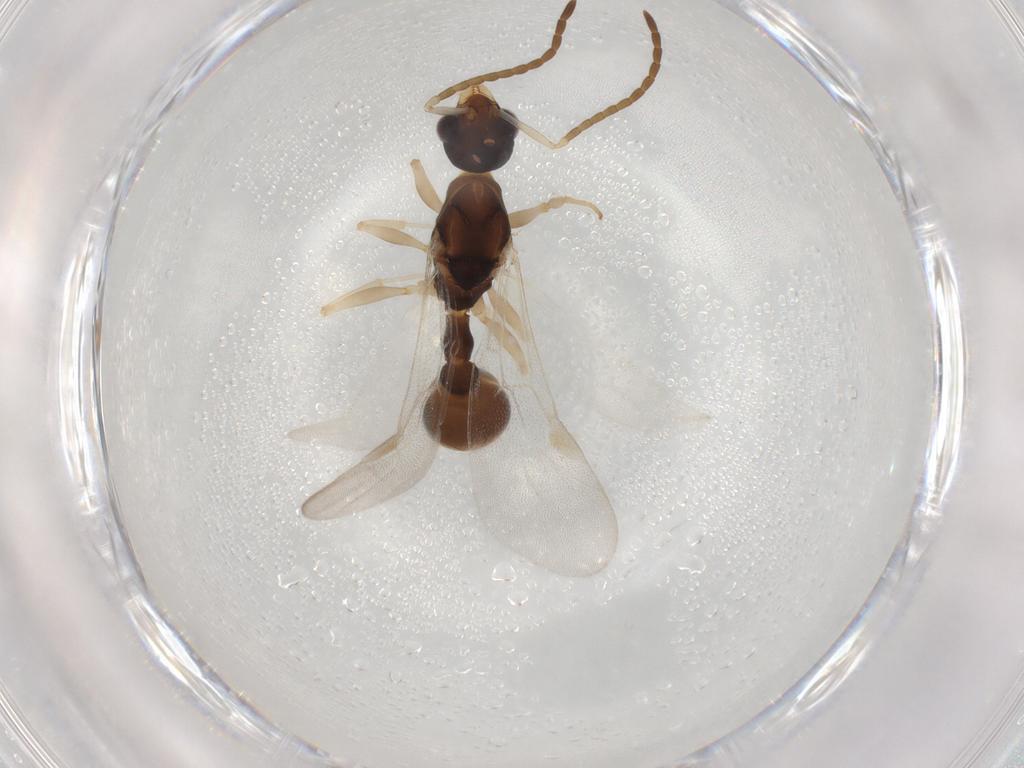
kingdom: Animalia
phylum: Arthropoda
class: Insecta
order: Hymenoptera
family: Formicidae
